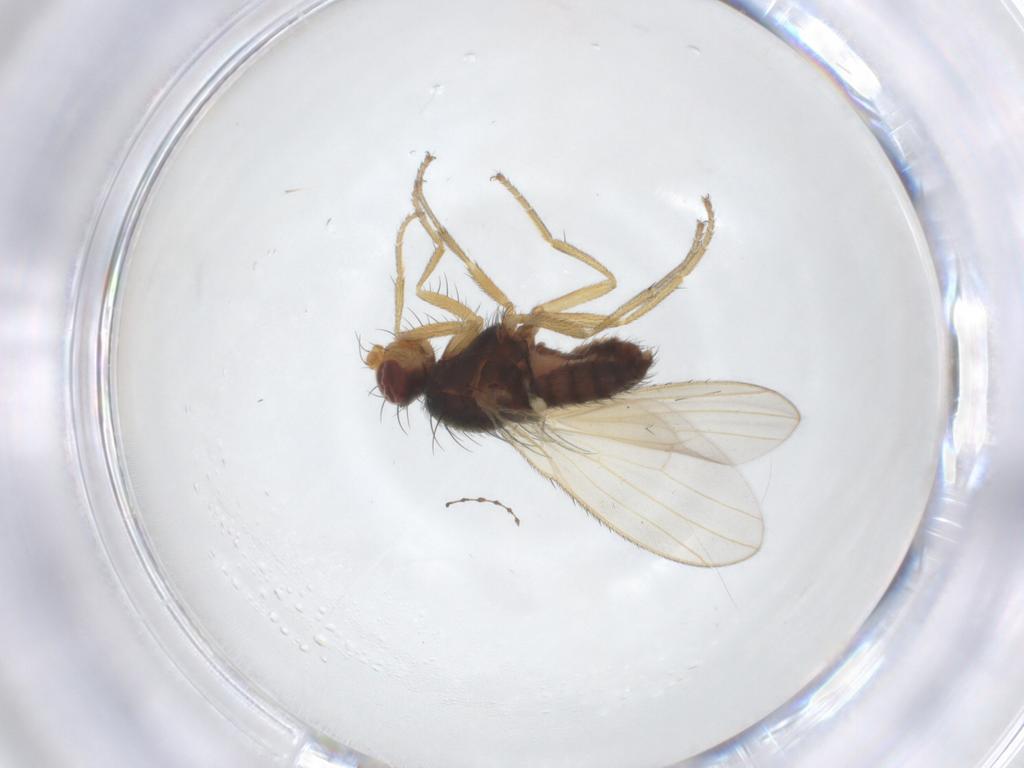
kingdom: Animalia
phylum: Arthropoda
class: Insecta
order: Diptera
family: Heleomyzidae
